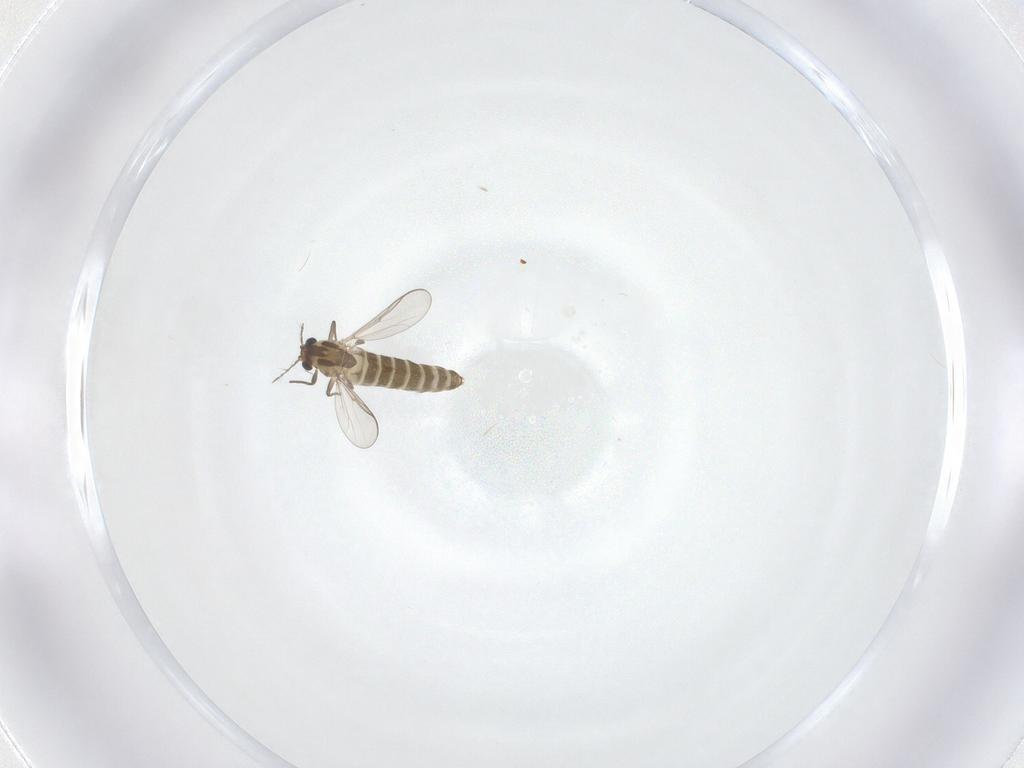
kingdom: Animalia
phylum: Arthropoda
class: Insecta
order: Diptera
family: Chironomidae
